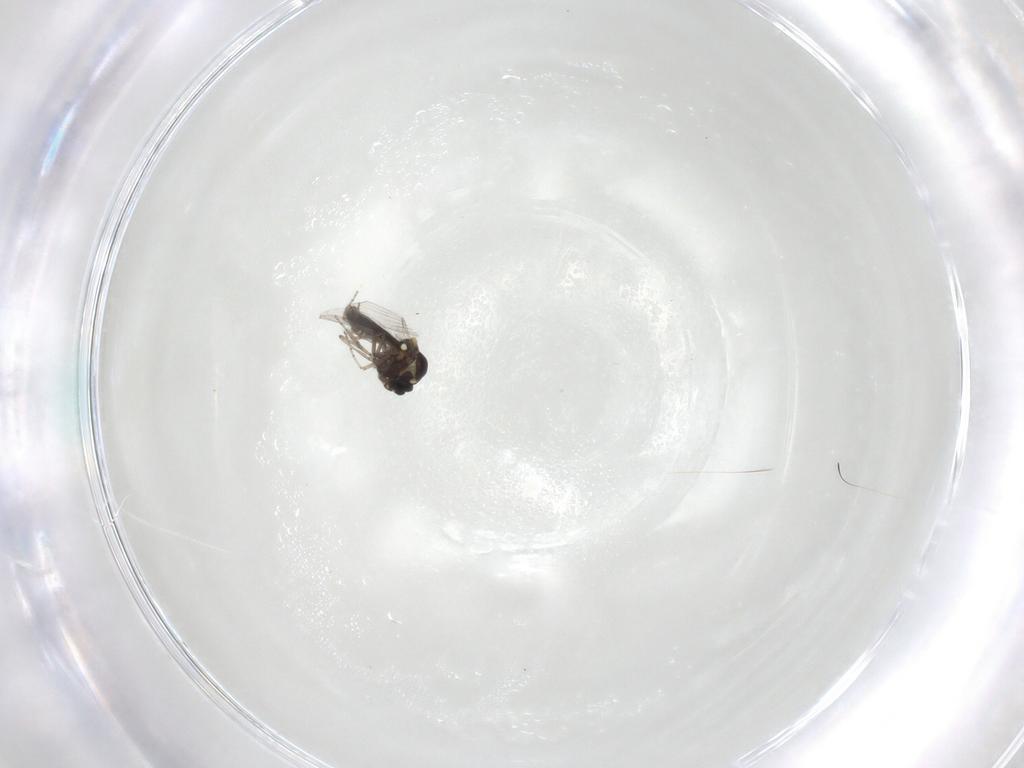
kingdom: Animalia
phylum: Arthropoda
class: Insecta
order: Diptera
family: Ceratopogonidae
